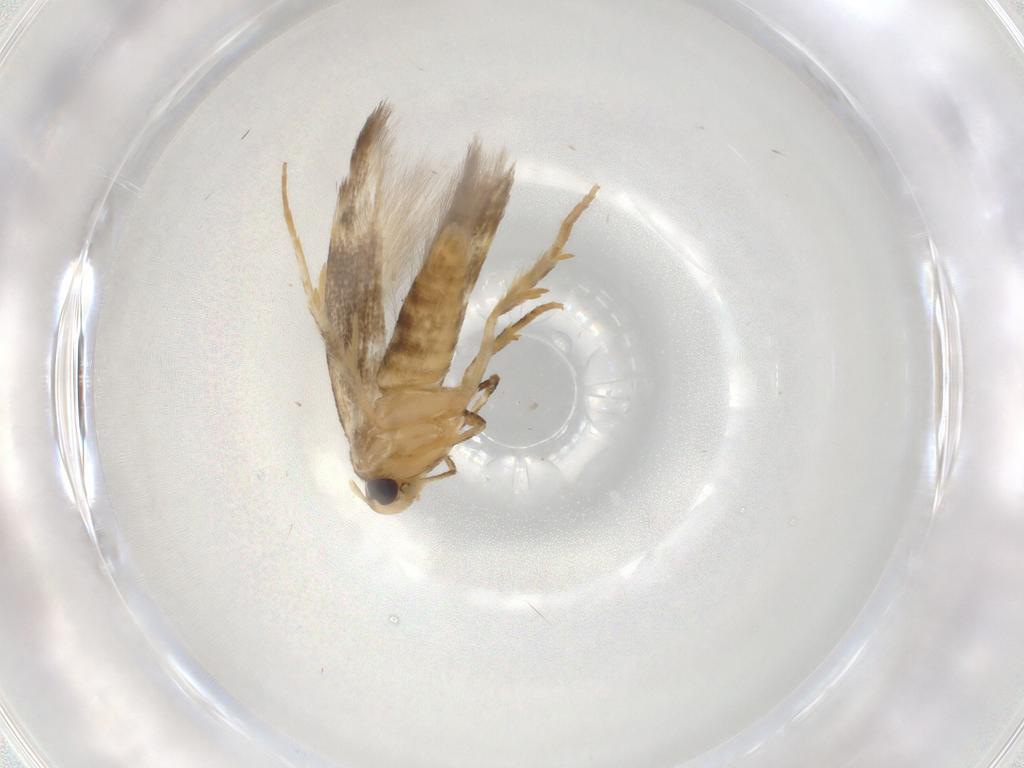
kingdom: Animalia
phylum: Arthropoda
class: Insecta
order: Lepidoptera
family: Cosmopterigidae
